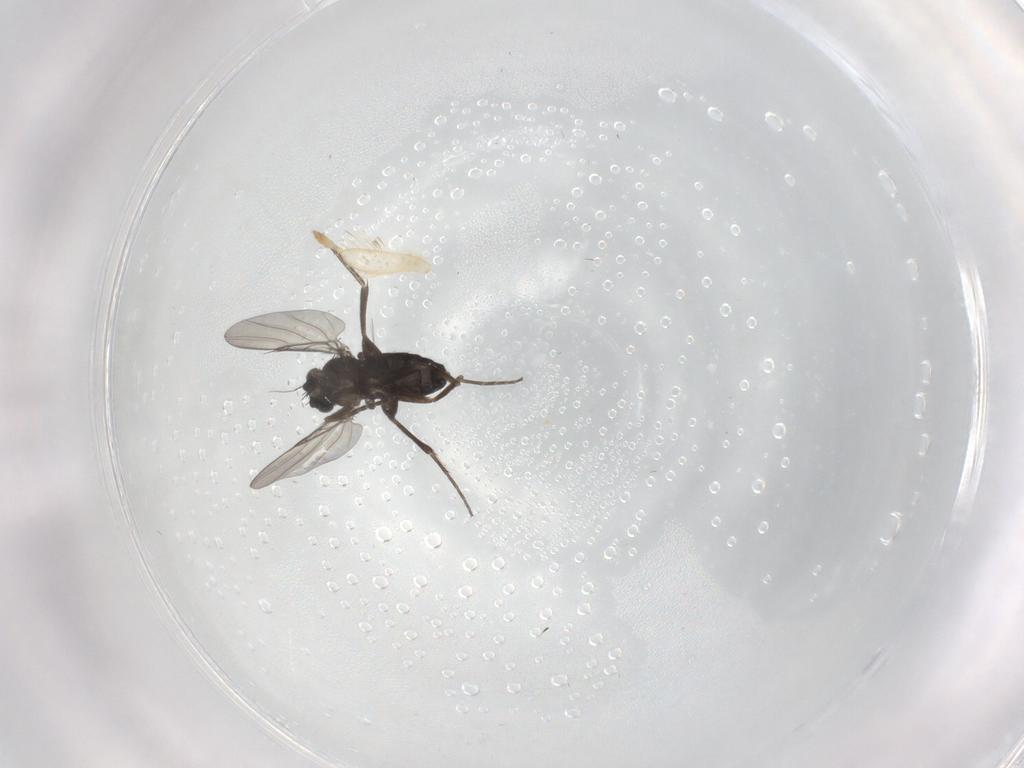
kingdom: Animalia
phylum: Arthropoda
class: Insecta
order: Diptera
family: Phoridae
